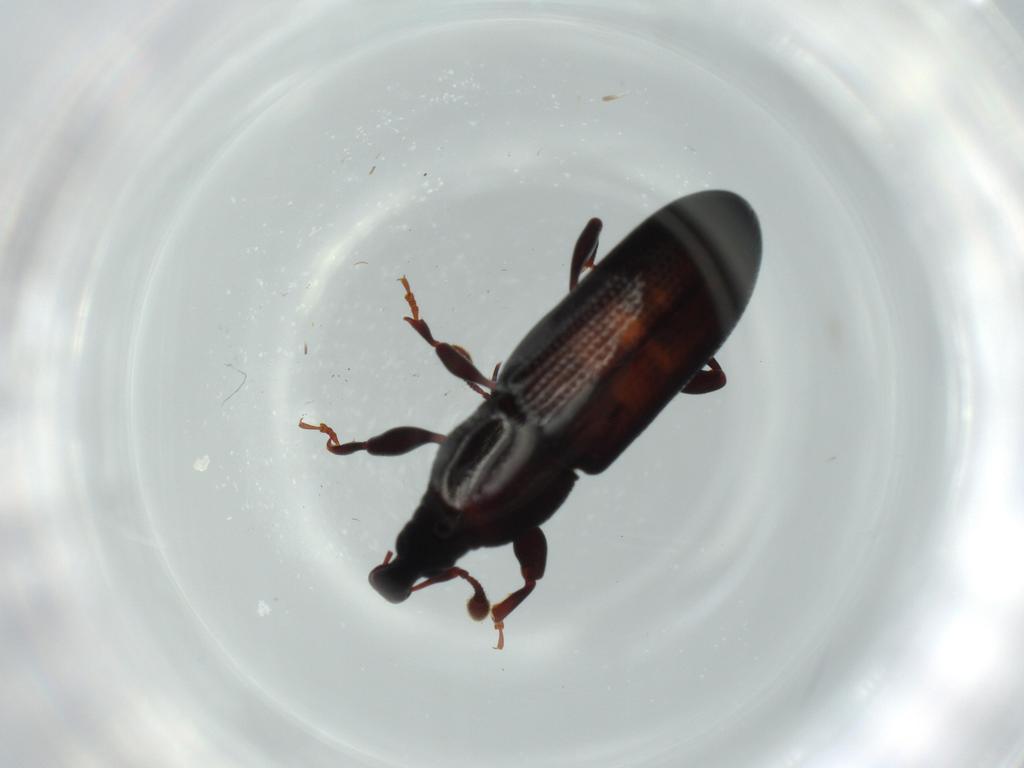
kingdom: Animalia
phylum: Arthropoda
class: Insecta
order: Coleoptera
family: Curculionidae
